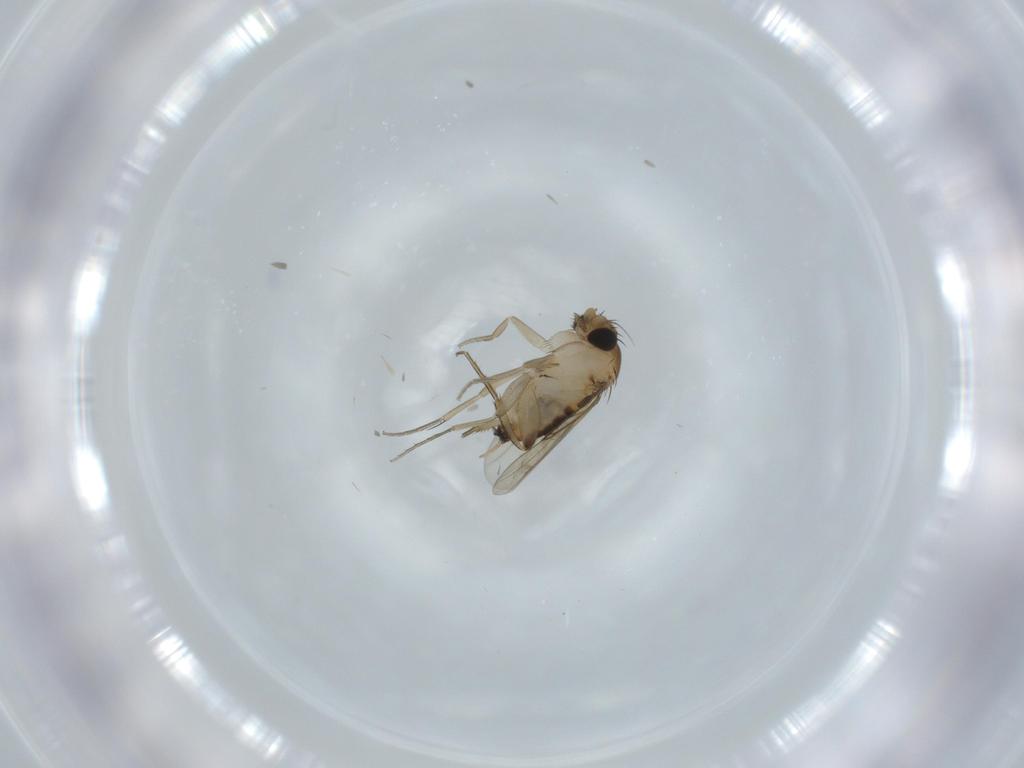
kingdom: Animalia
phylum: Arthropoda
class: Insecta
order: Diptera
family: Phoridae
